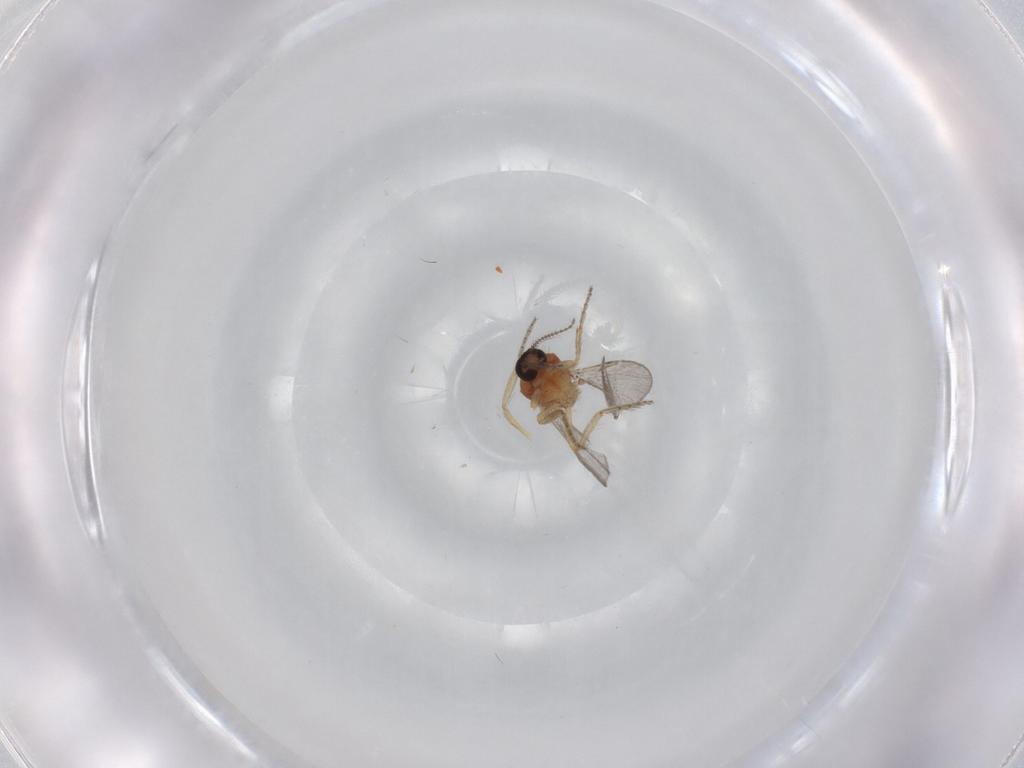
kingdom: Animalia
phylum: Arthropoda
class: Insecta
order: Diptera
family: Ceratopogonidae
